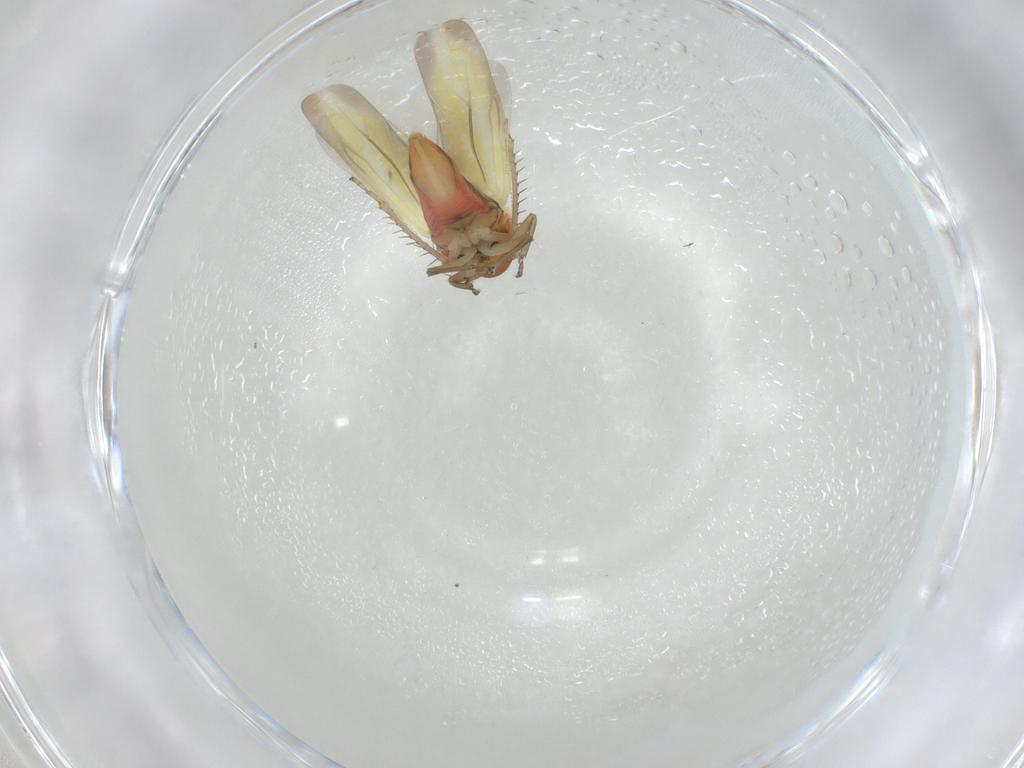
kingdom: Animalia
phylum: Arthropoda
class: Insecta
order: Hemiptera
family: Cicadellidae
